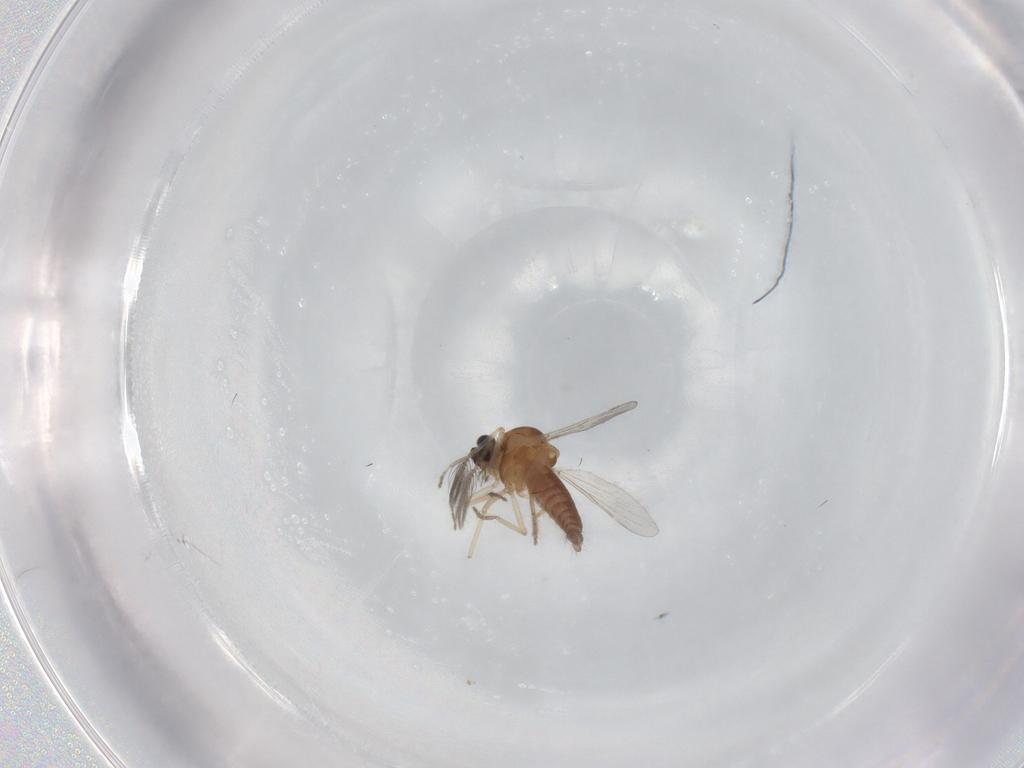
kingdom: Animalia
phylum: Arthropoda
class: Insecta
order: Diptera
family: Ceratopogonidae
